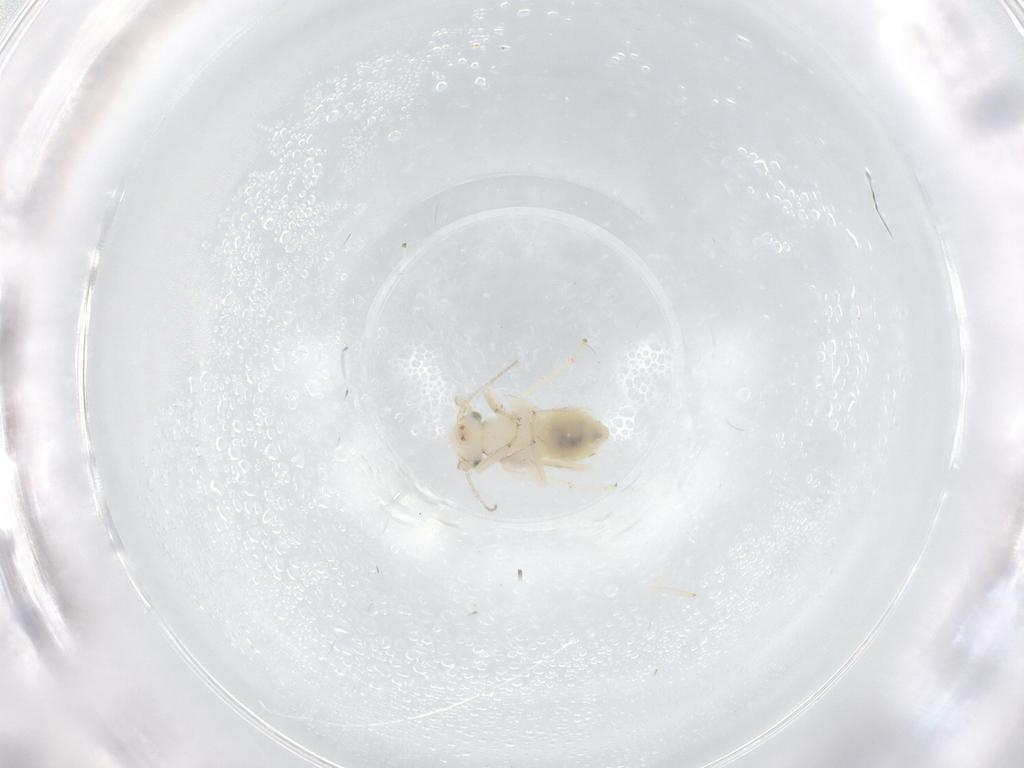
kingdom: Animalia
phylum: Arthropoda
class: Insecta
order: Psocodea
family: Lepidopsocidae
